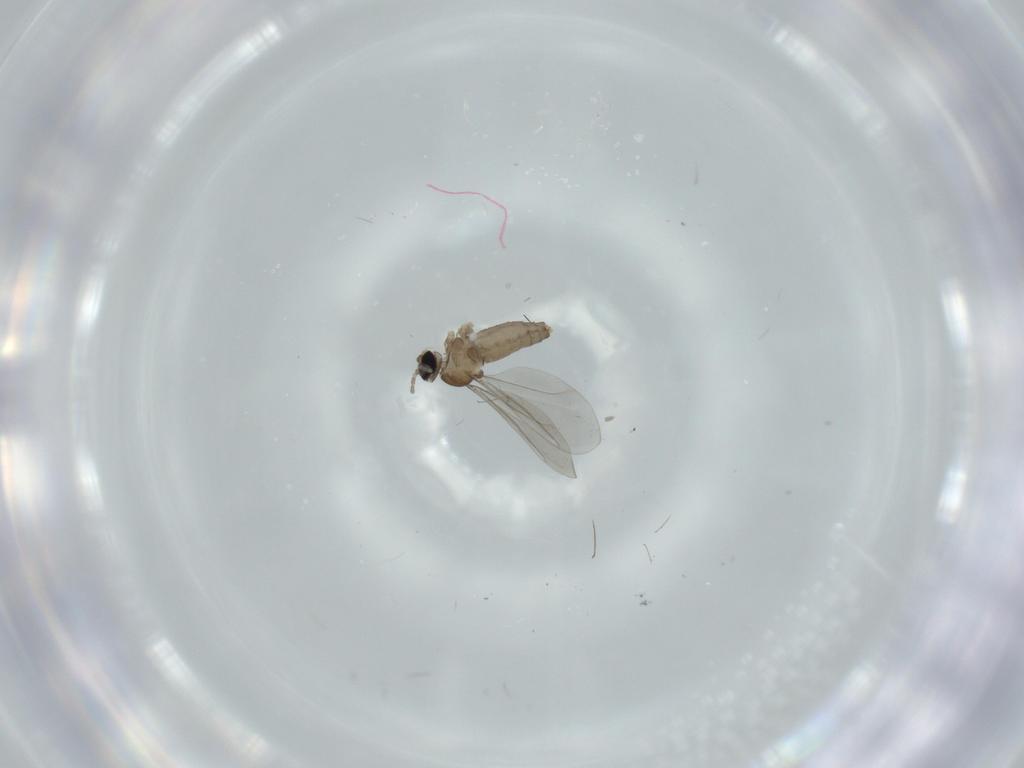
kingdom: Animalia
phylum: Arthropoda
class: Insecta
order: Diptera
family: Cecidomyiidae
